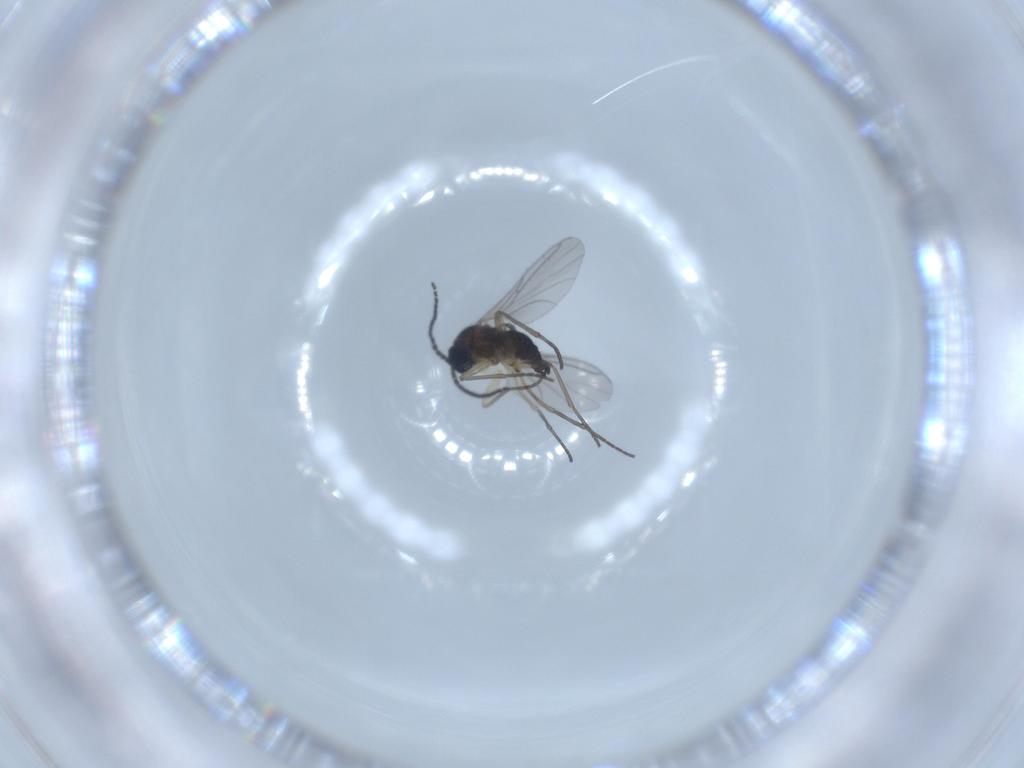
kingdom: Animalia
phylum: Arthropoda
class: Insecta
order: Diptera
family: Sciaridae
